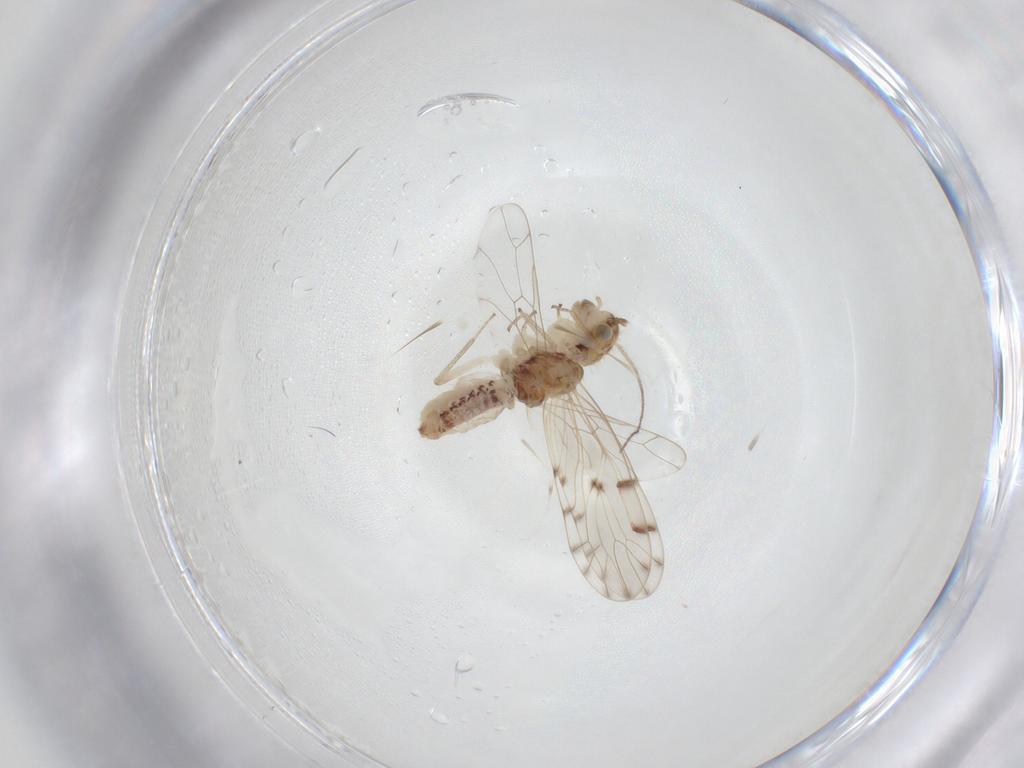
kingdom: Animalia
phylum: Arthropoda
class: Insecta
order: Psocodea
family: Ectopsocidae
